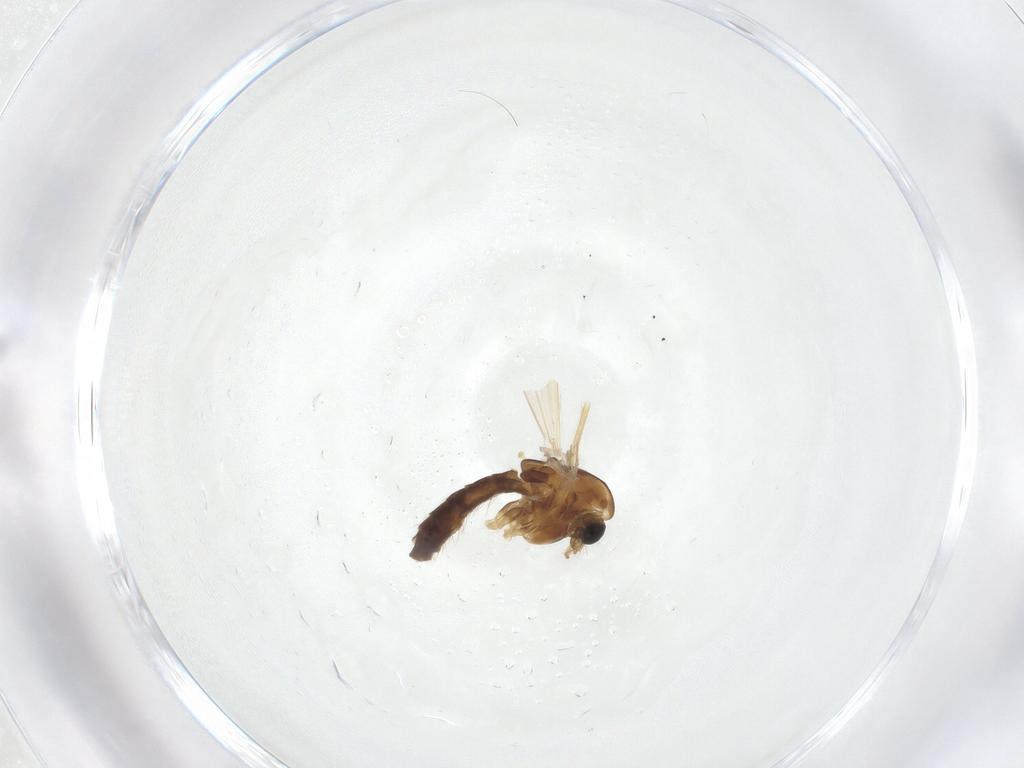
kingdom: Animalia
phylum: Arthropoda
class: Insecta
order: Diptera
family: Chironomidae
